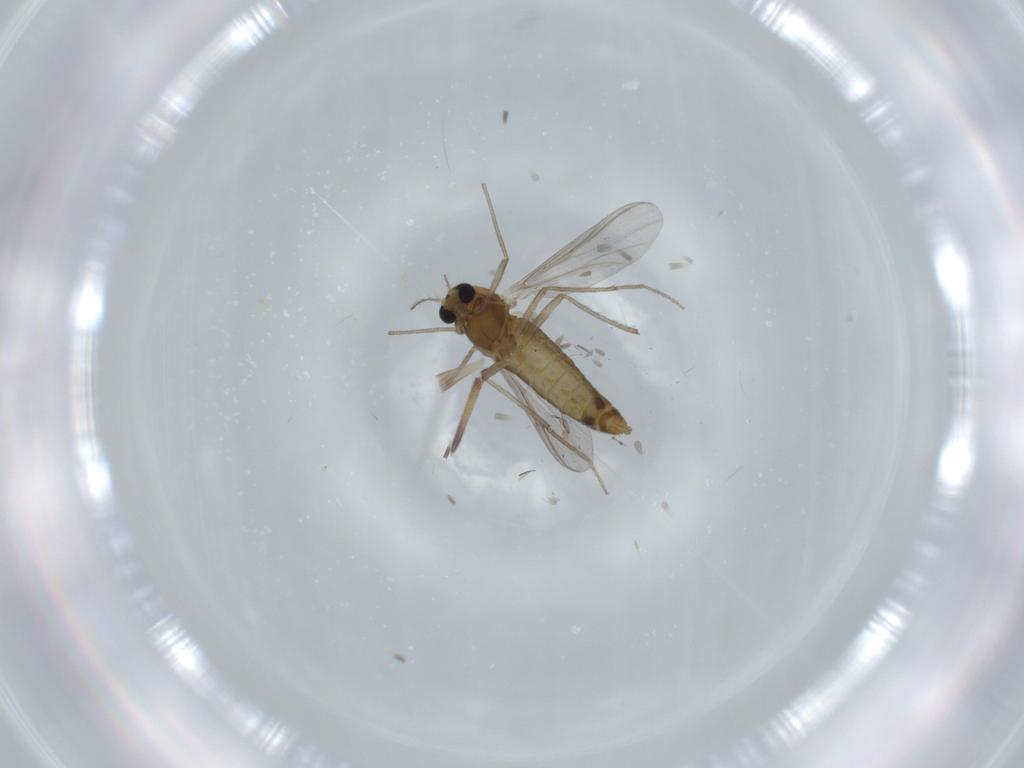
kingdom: Animalia
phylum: Arthropoda
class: Insecta
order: Diptera
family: Chironomidae
